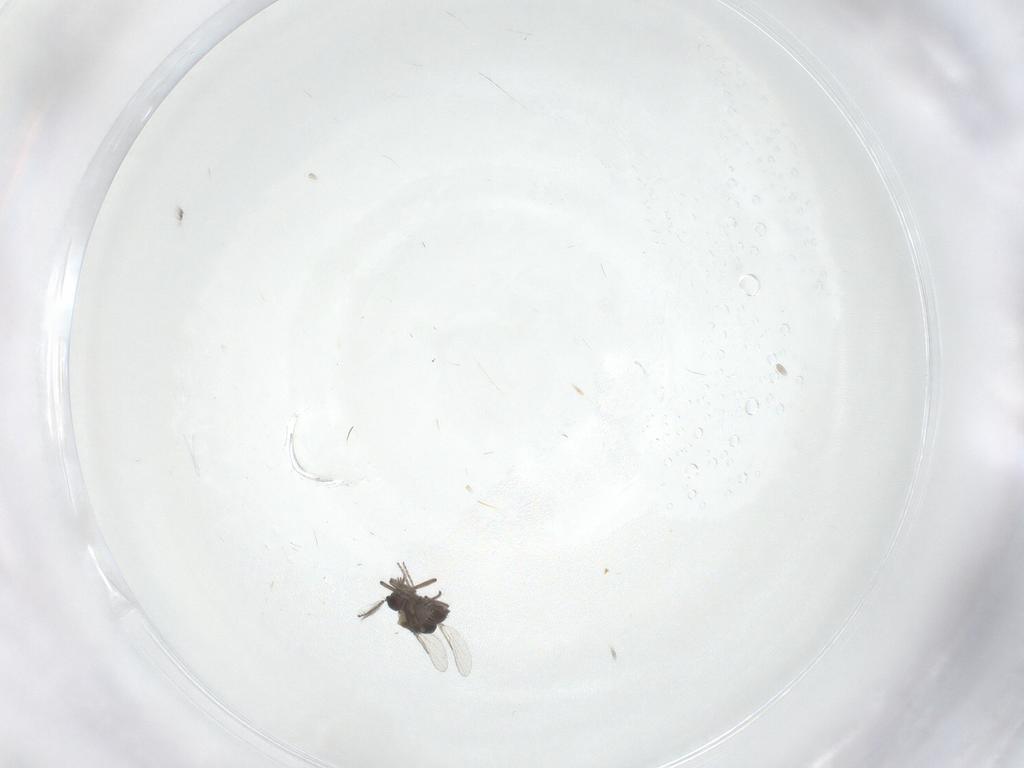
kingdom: Animalia
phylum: Arthropoda
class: Insecta
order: Diptera
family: Ceratopogonidae
